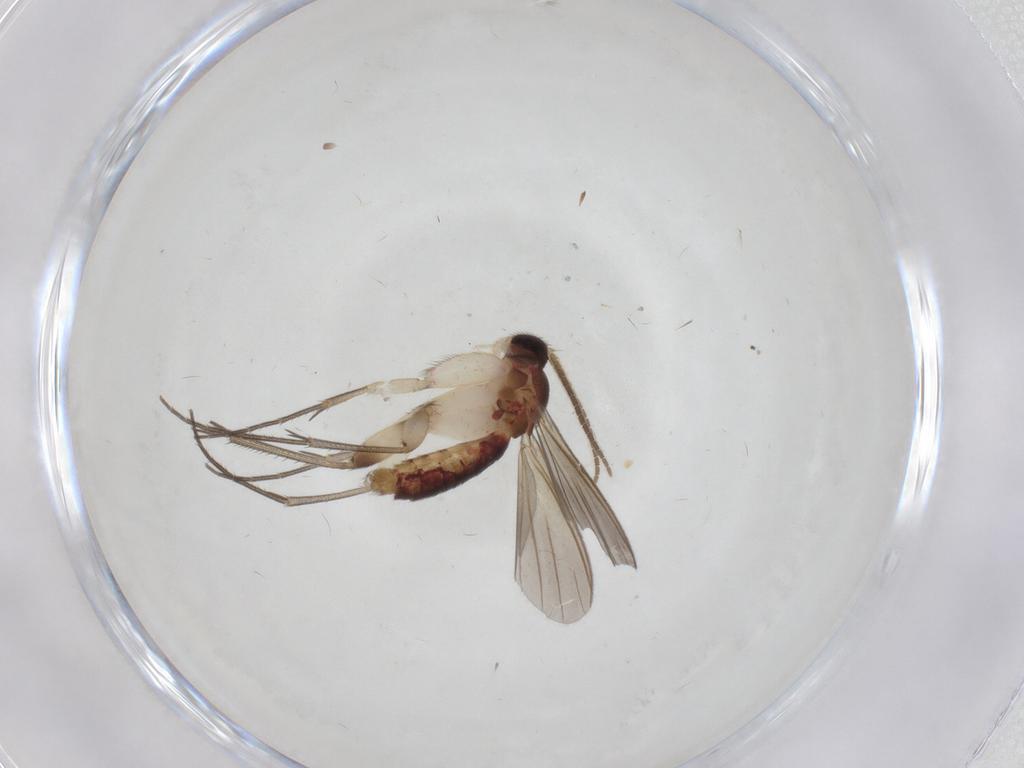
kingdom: Animalia
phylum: Arthropoda
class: Insecta
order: Diptera
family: Mycetophilidae
